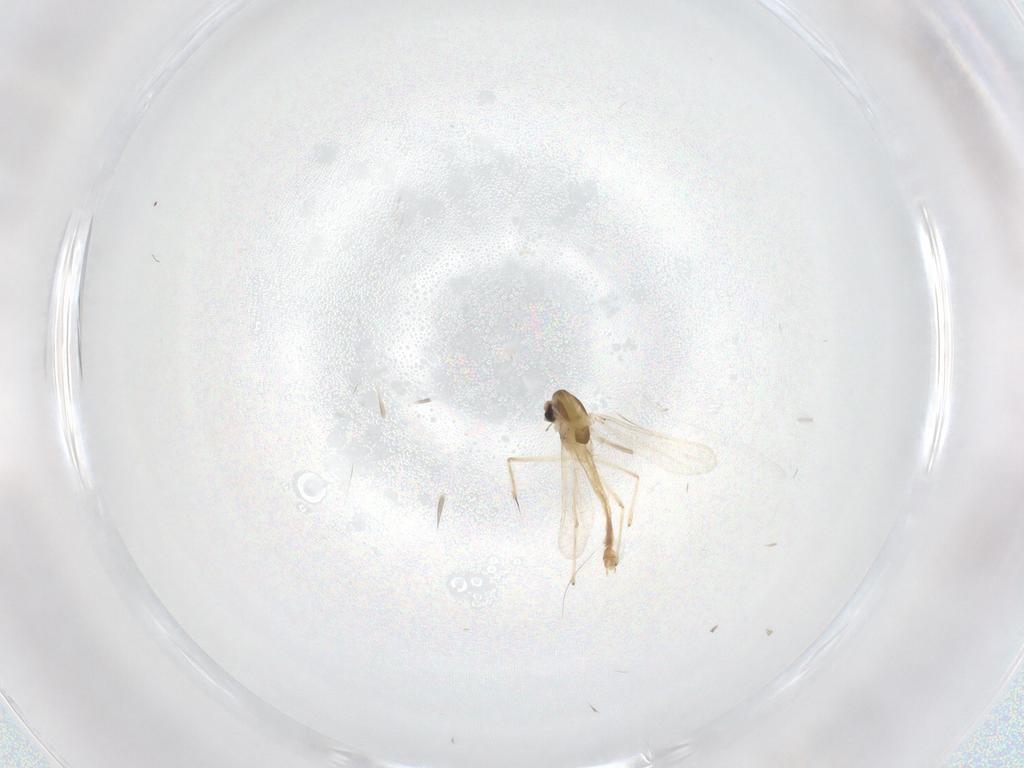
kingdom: Animalia
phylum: Arthropoda
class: Insecta
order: Diptera
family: Chironomidae
